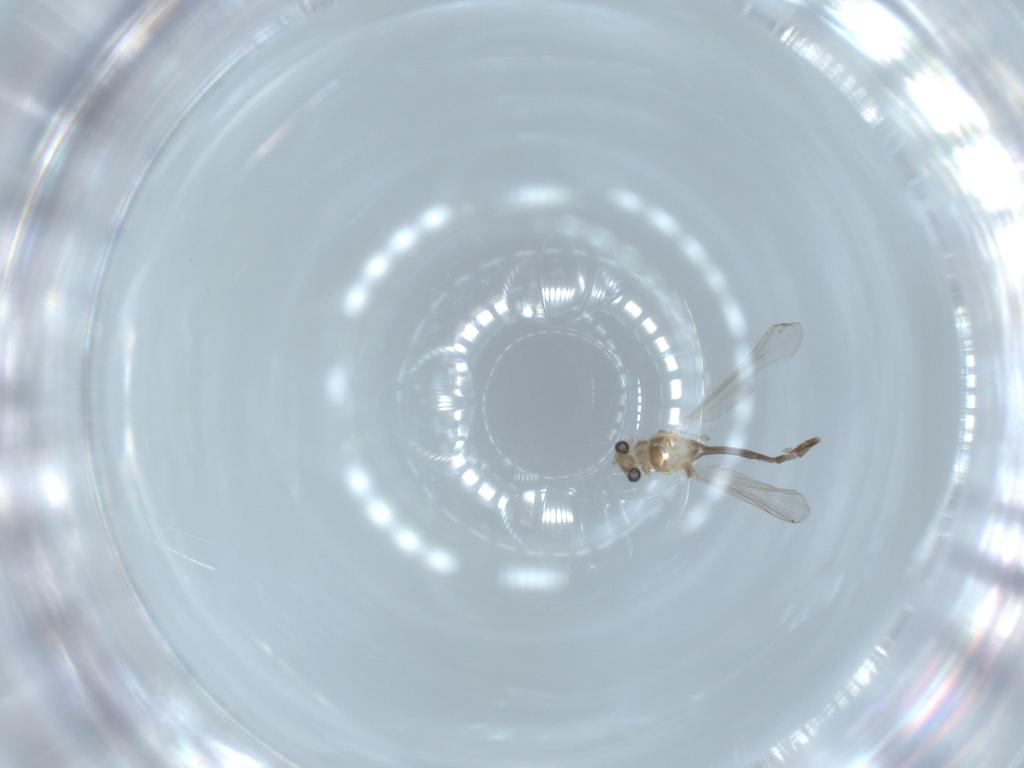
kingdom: Animalia
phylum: Arthropoda
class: Insecta
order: Diptera
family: Chironomidae
